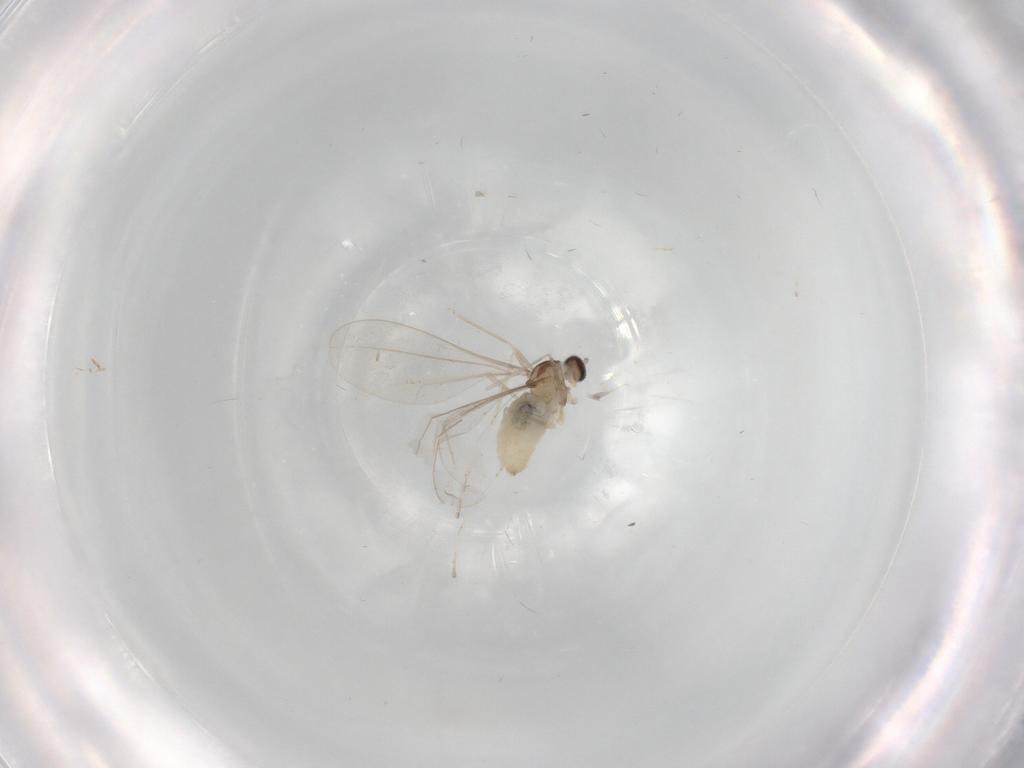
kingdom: Animalia
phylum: Arthropoda
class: Insecta
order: Diptera
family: Cecidomyiidae
